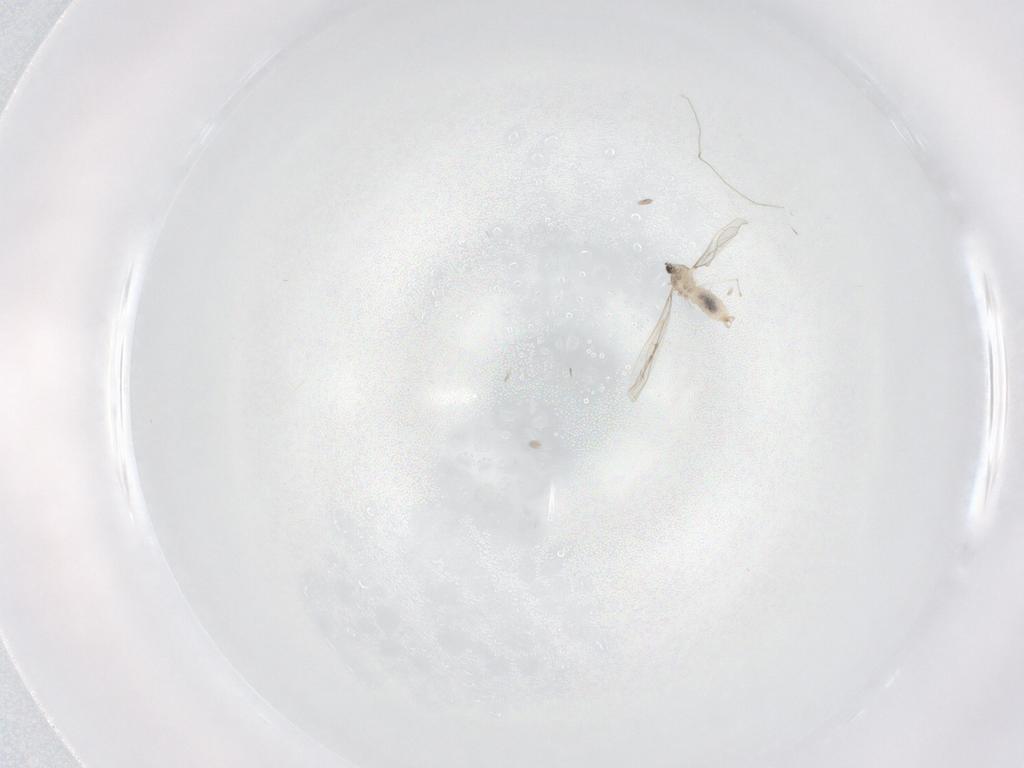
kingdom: Animalia
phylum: Arthropoda
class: Insecta
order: Diptera
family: Cecidomyiidae
